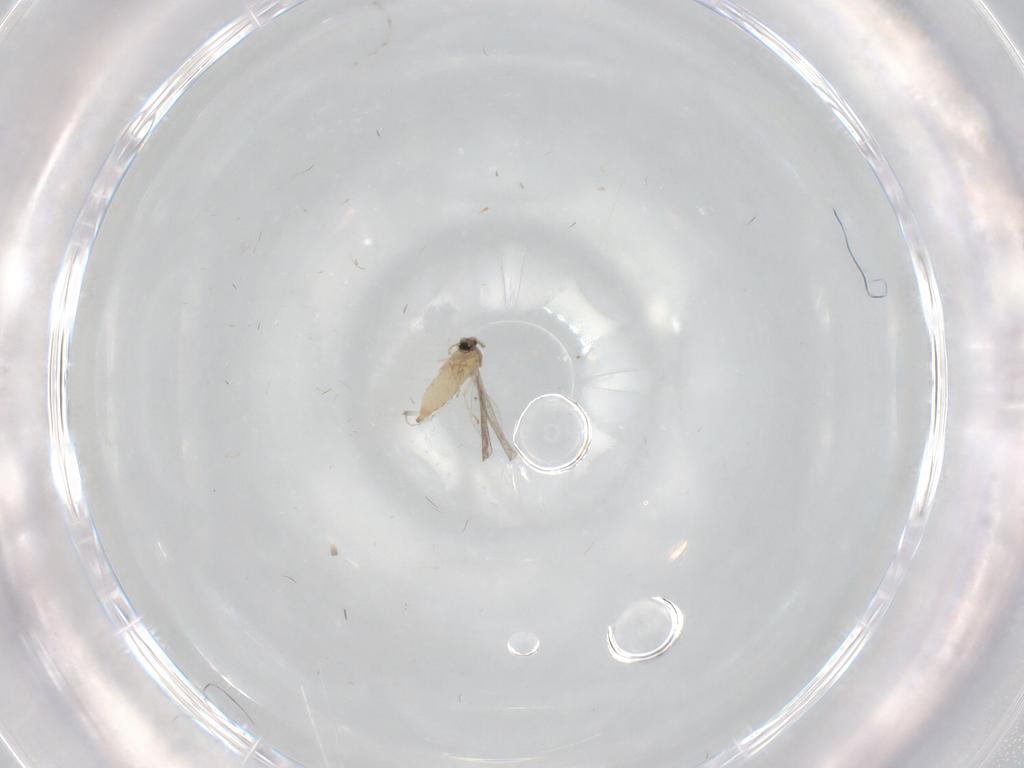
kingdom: Animalia
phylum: Arthropoda
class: Insecta
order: Diptera
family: Cecidomyiidae
